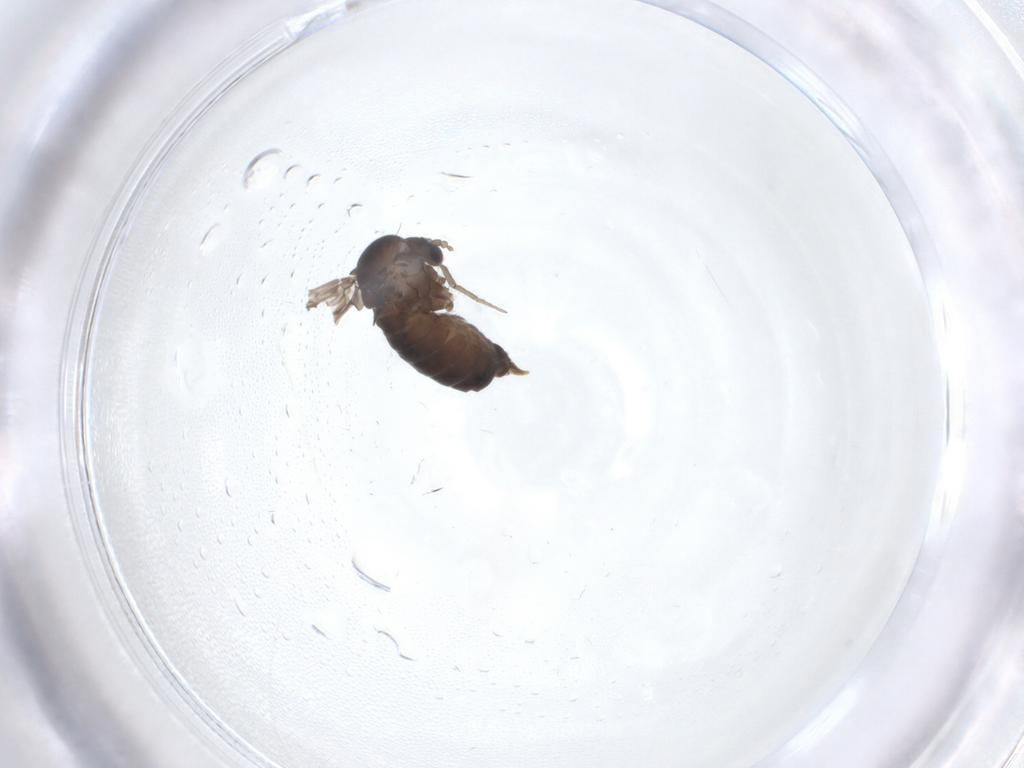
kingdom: Animalia
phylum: Arthropoda
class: Insecta
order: Diptera
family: Psychodidae
